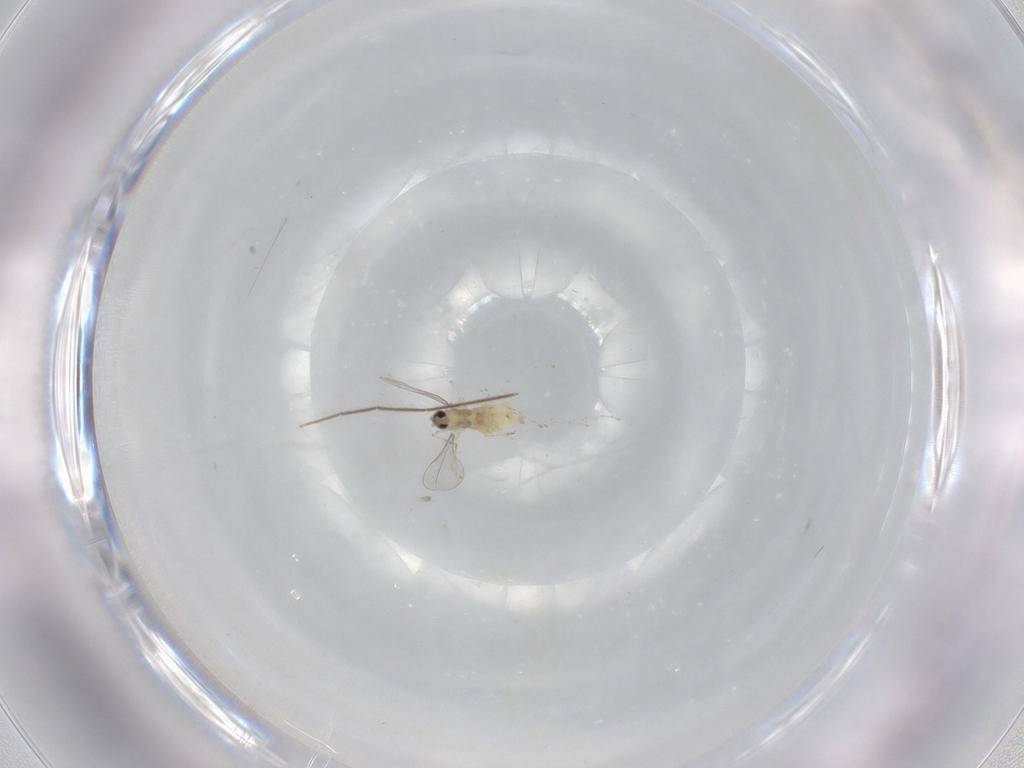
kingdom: Animalia
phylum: Arthropoda
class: Insecta
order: Diptera
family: Cecidomyiidae
